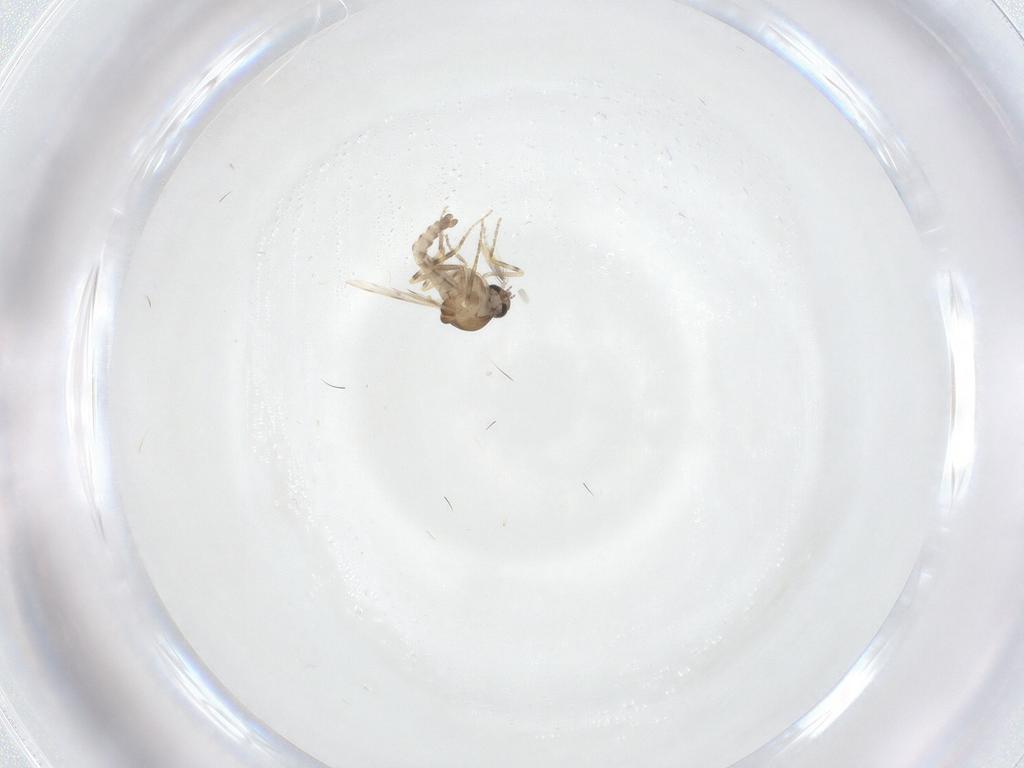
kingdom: Animalia
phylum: Arthropoda
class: Insecta
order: Diptera
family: Ceratopogonidae
